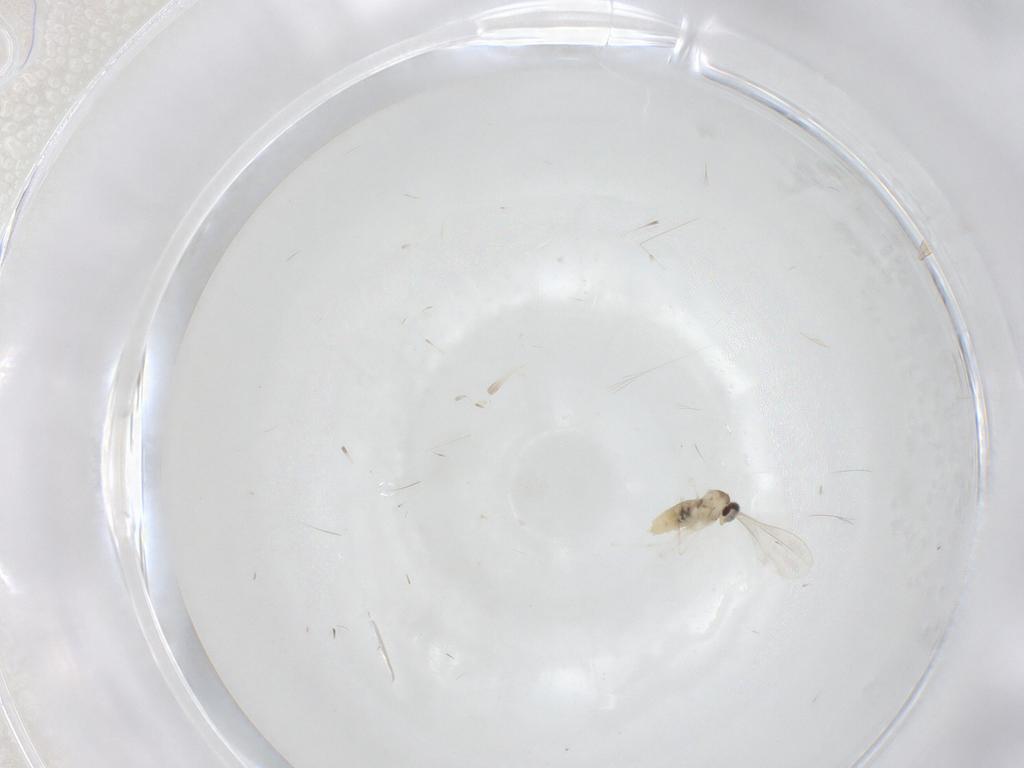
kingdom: Animalia
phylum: Arthropoda
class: Insecta
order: Diptera
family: Cecidomyiidae
